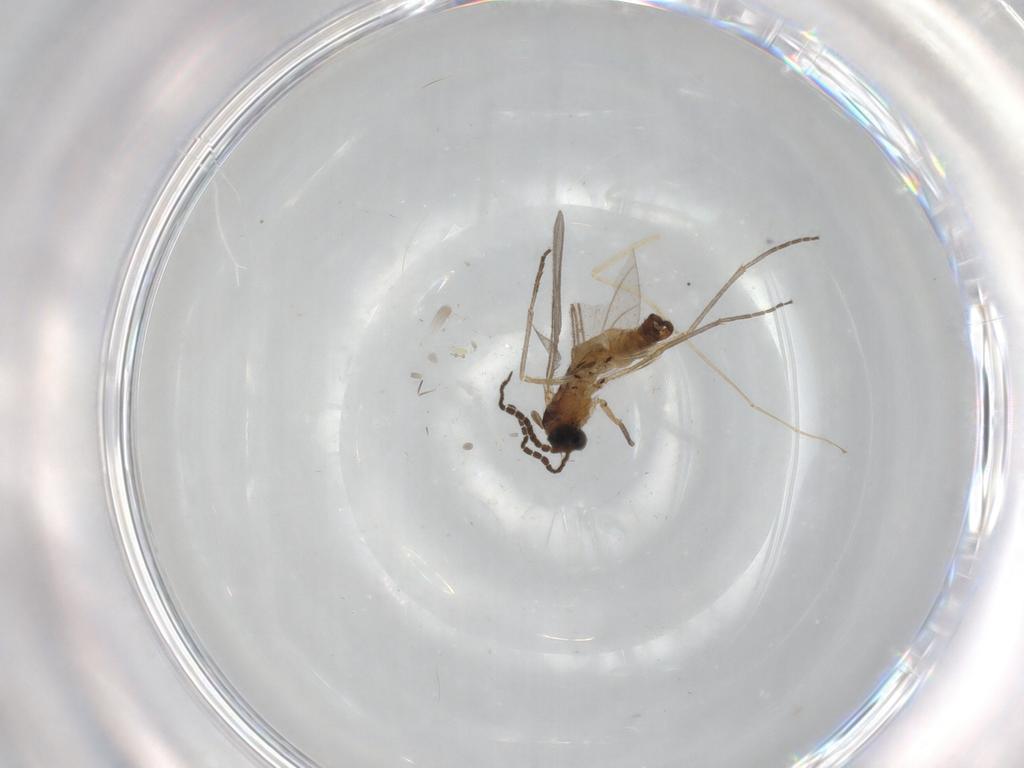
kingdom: Animalia
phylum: Arthropoda
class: Insecta
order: Diptera
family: Sciaridae
